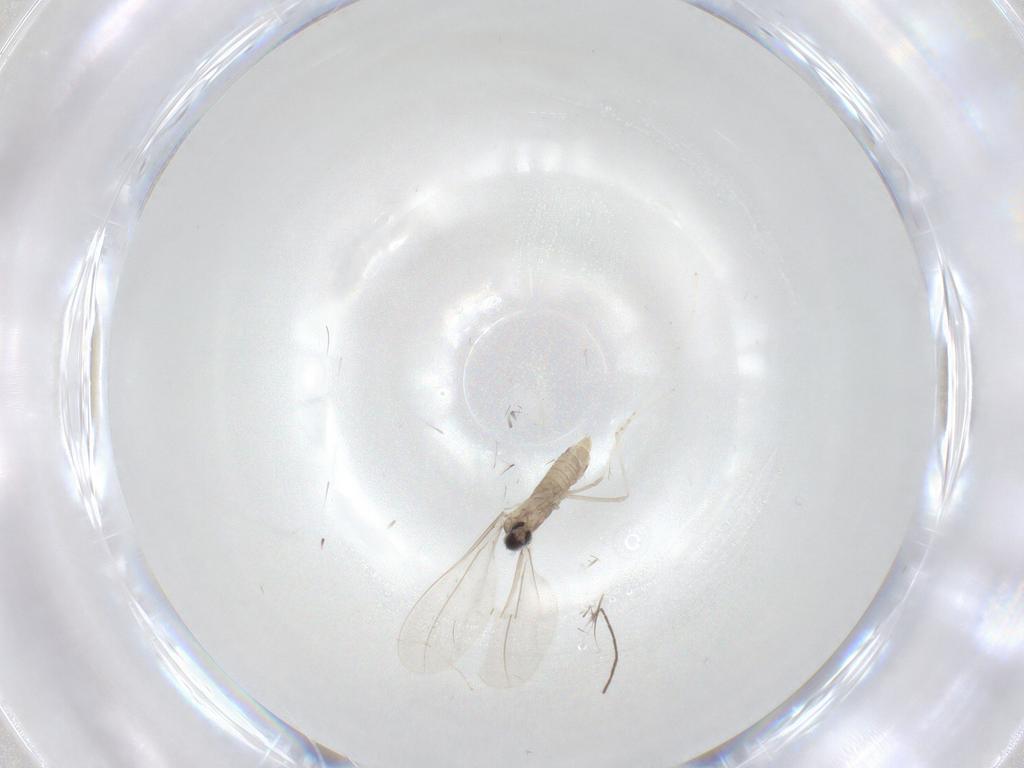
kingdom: Animalia
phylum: Arthropoda
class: Insecta
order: Diptera
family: Cecidomyiidae
